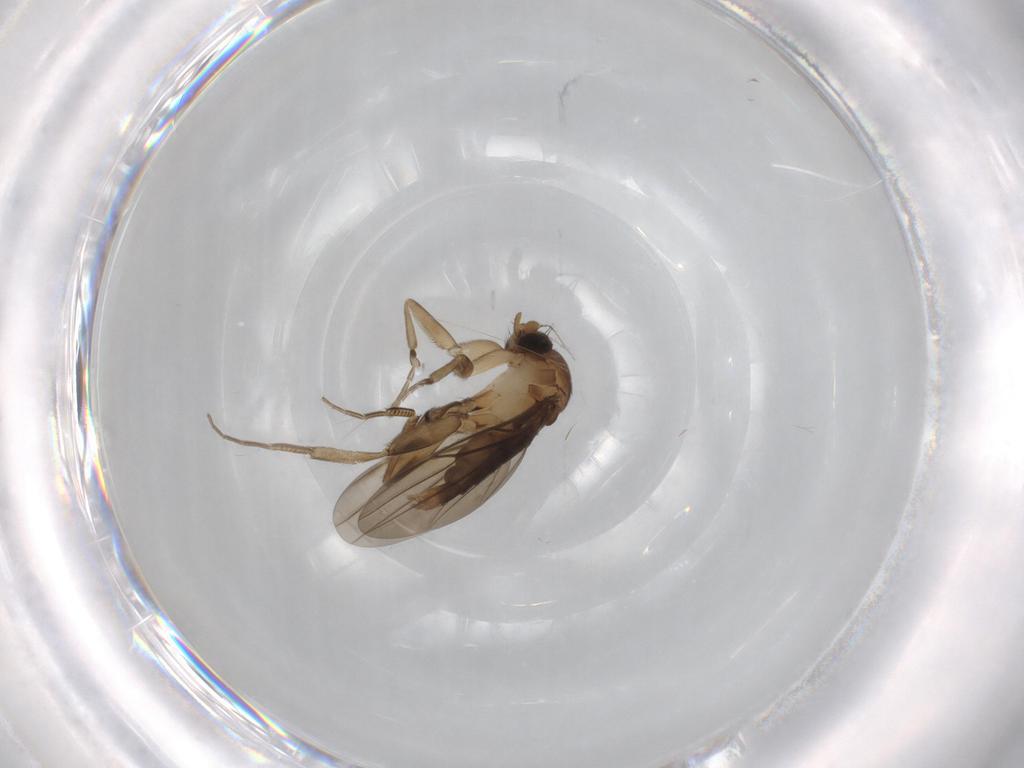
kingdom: Animalia
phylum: Arthropoda
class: Insecta
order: Diptera
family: Phoridae
